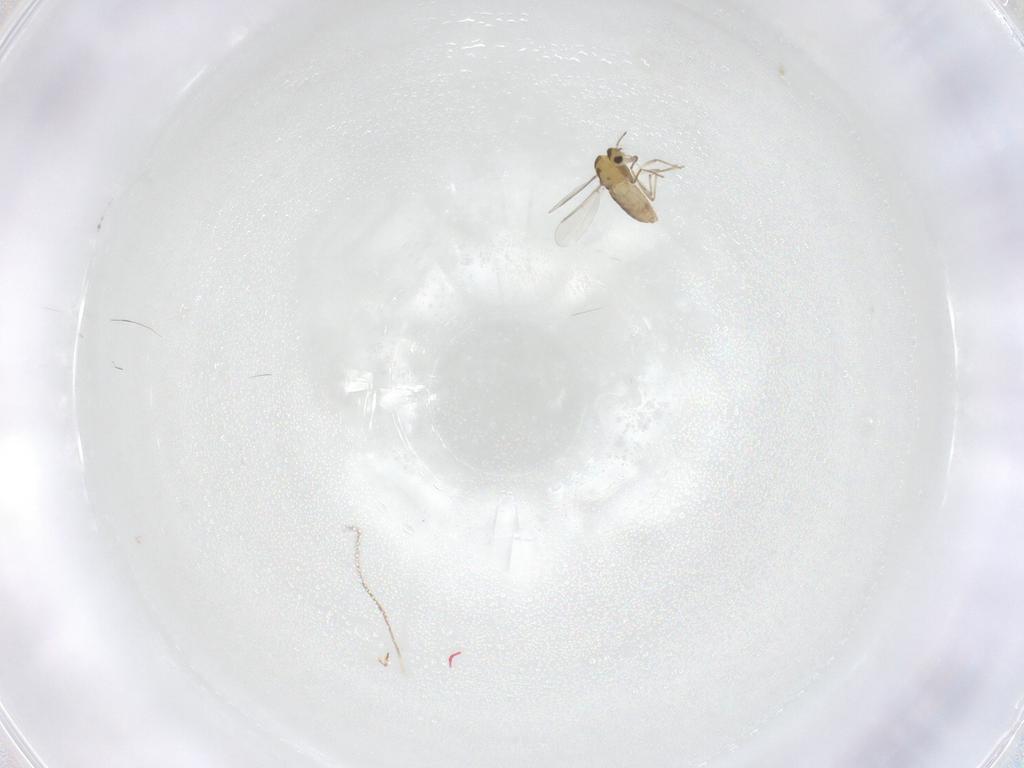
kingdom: Animalia
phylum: Arthropoda
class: Insecta
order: Diptera
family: Chironomidae
